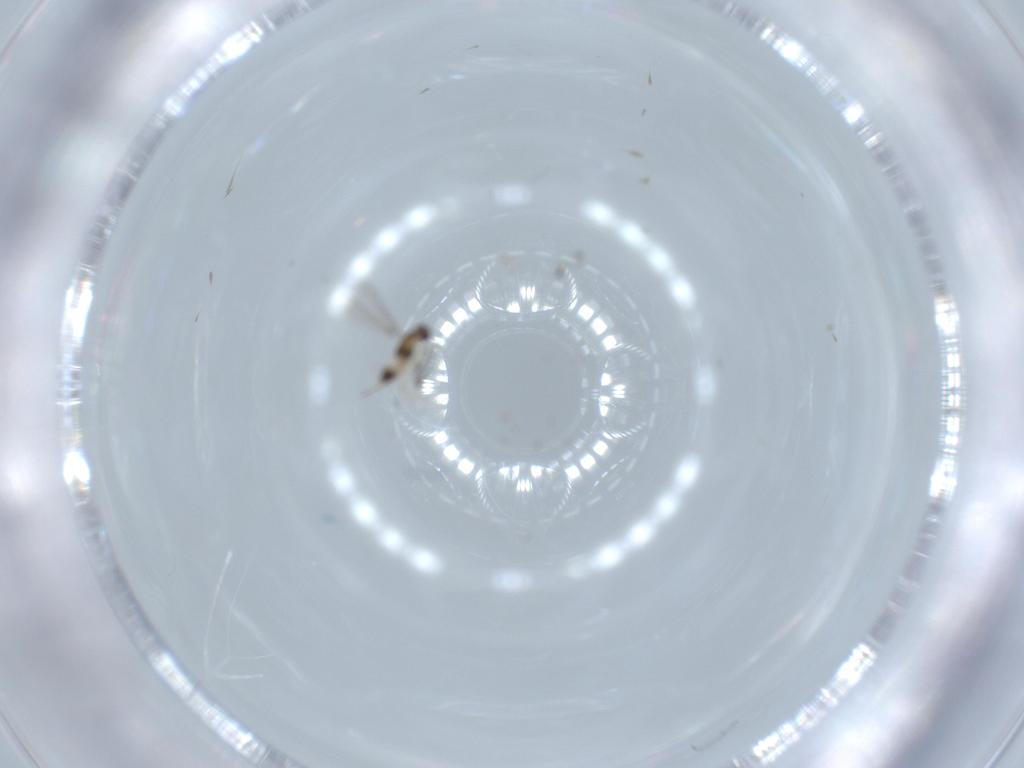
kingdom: Animalia
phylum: Arthropoda
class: Insecta
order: Hymenoptera
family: Mymaridae
